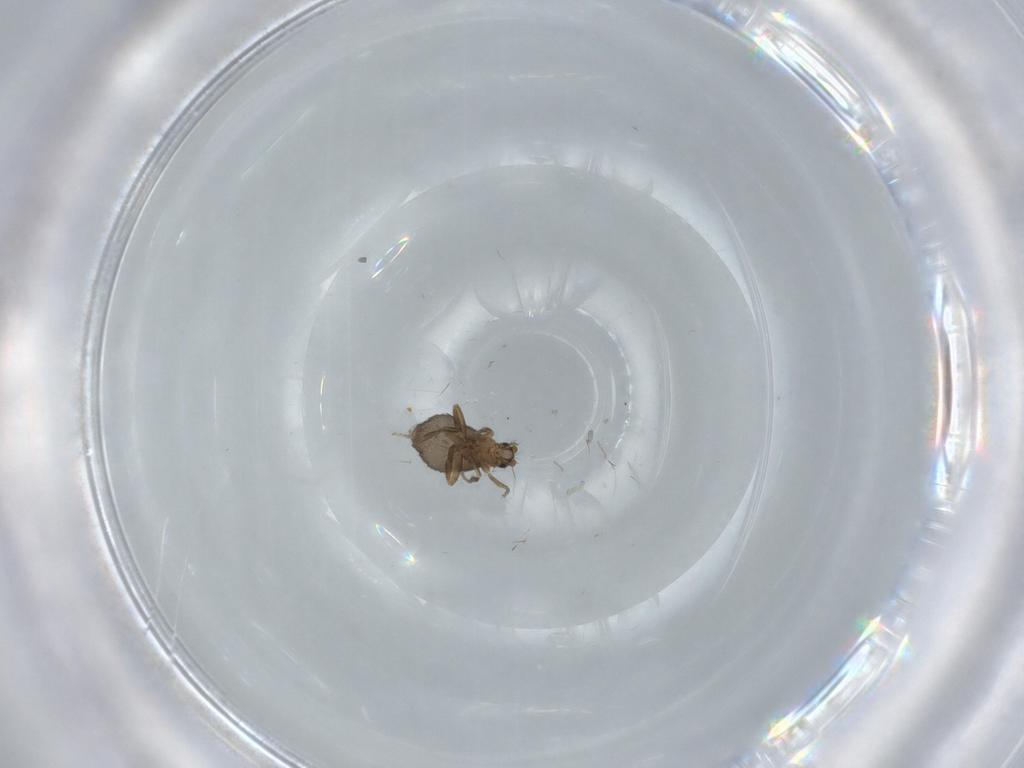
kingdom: Animalia
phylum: Arthropoda
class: Insecta
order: Diptera
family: Phoridae
